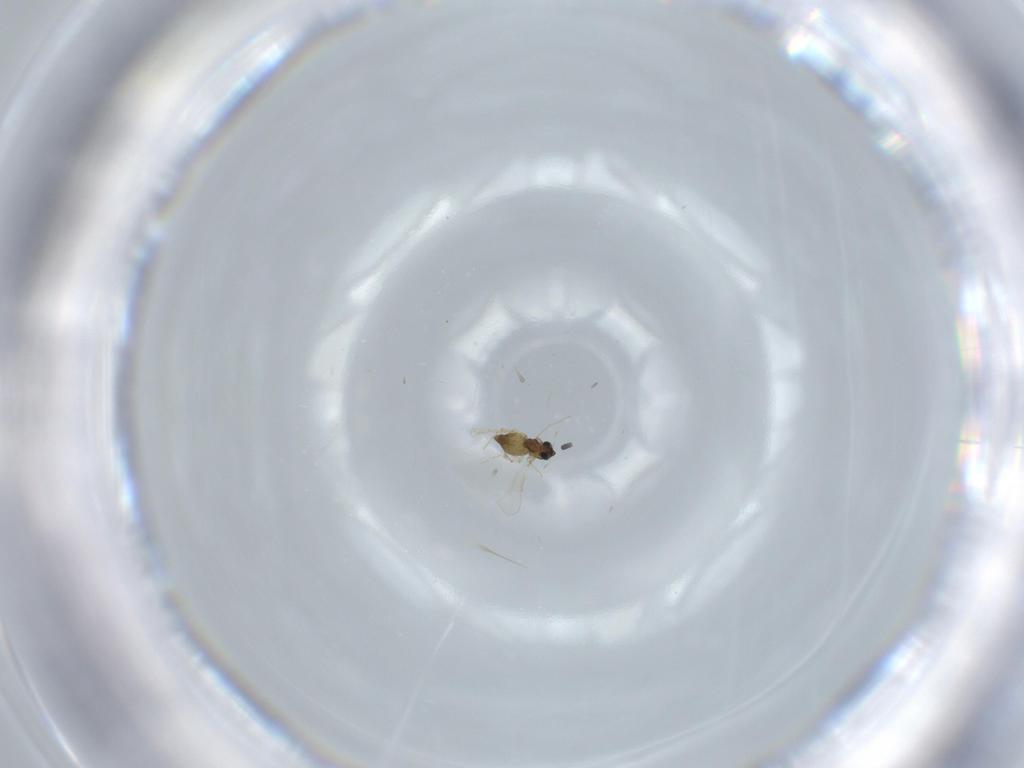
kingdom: Animalia
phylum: Arthropoda
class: Insecta
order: Diptera
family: Chironomidae
